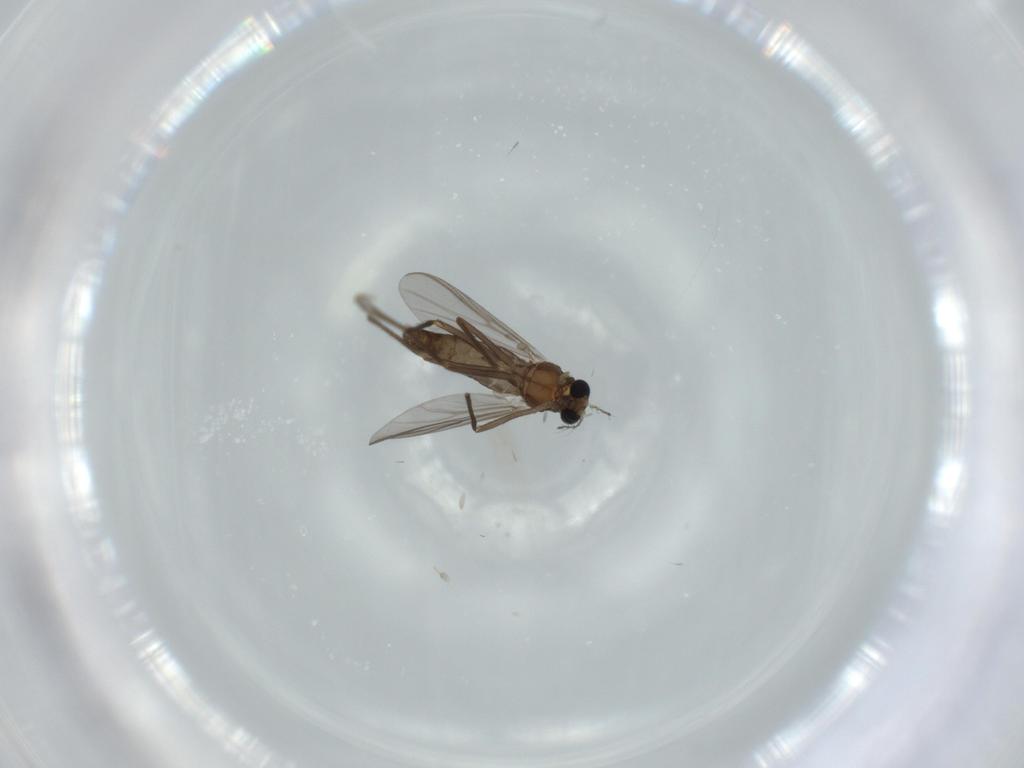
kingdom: Animalia
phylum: Arthropoda
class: Insecta
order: Diptera
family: Chironomidae
